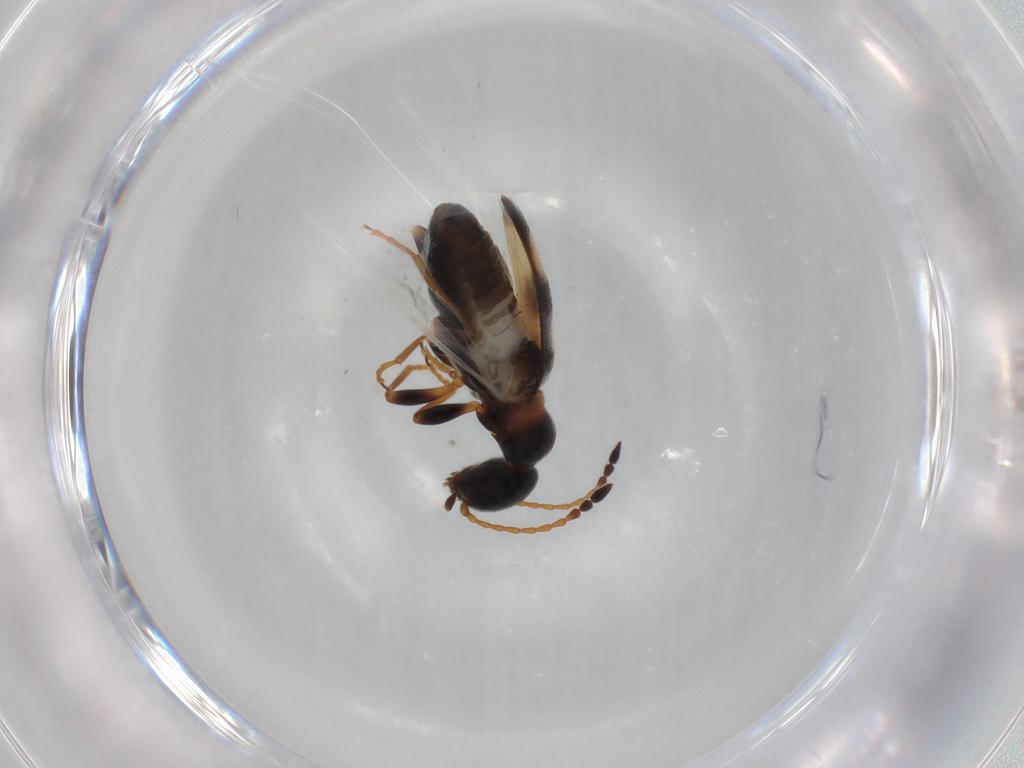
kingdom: Animalia
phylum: Arthropoda
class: Insecta
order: Coleoptera
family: Anthicidae
